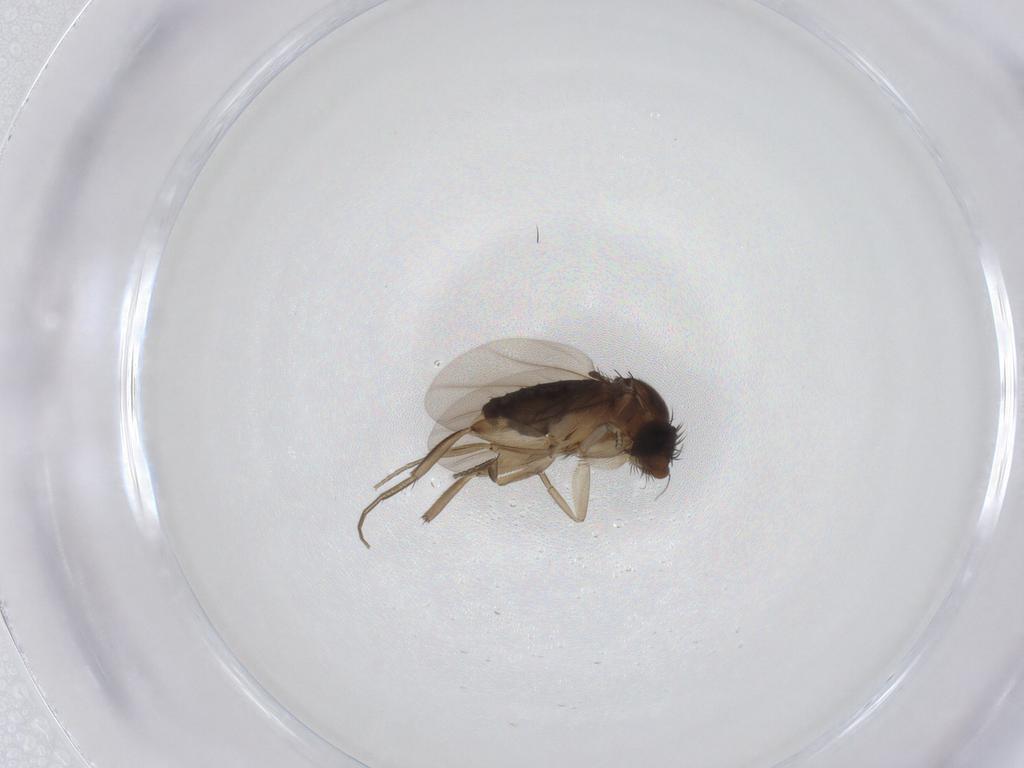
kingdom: Animalia
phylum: Arthropoda
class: Insecta
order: Diptera
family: Phoridae
